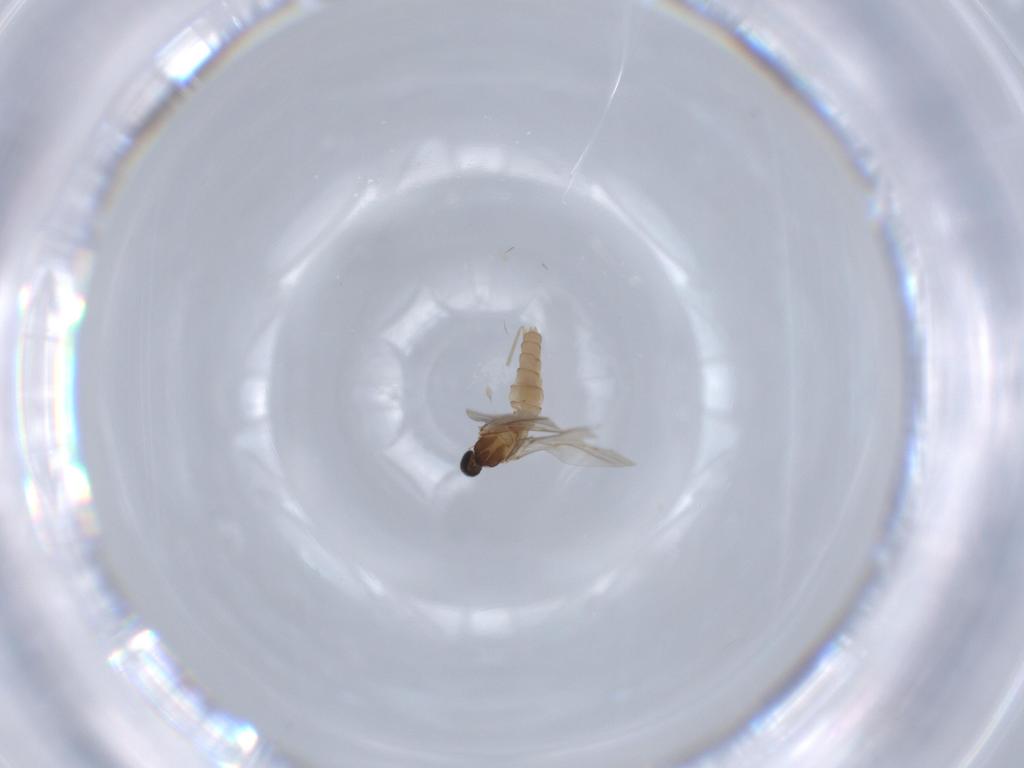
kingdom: Animalia
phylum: Arthropoda
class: Insecta
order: Diptera
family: Cecidomyiidae
